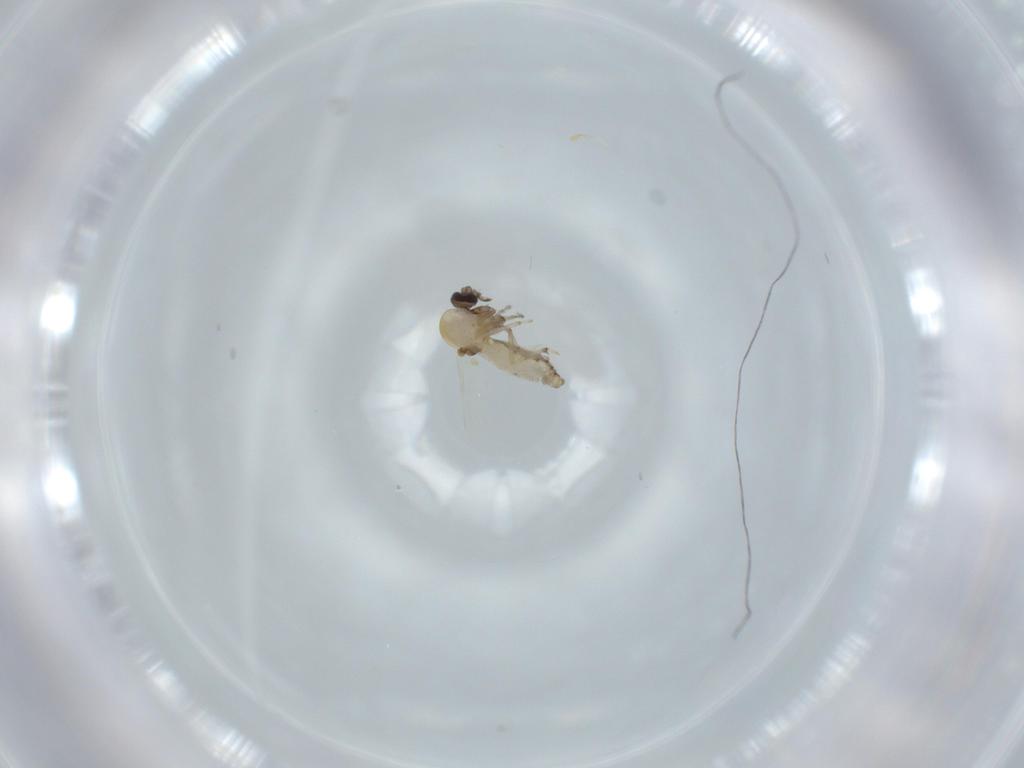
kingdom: Animalia
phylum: Arthropoda
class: Insecta
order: Diptera
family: Ceratopogonidae
